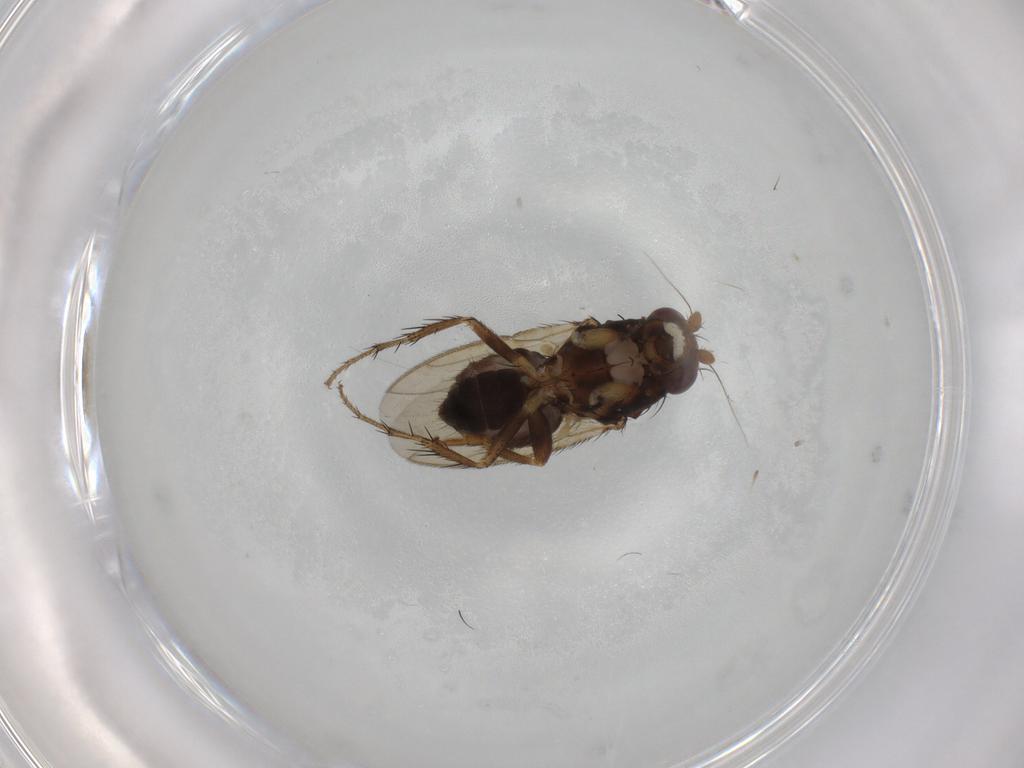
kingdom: Animalia
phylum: Arthropoda
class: Insecta
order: Diptera
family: Sphaeroceridae
